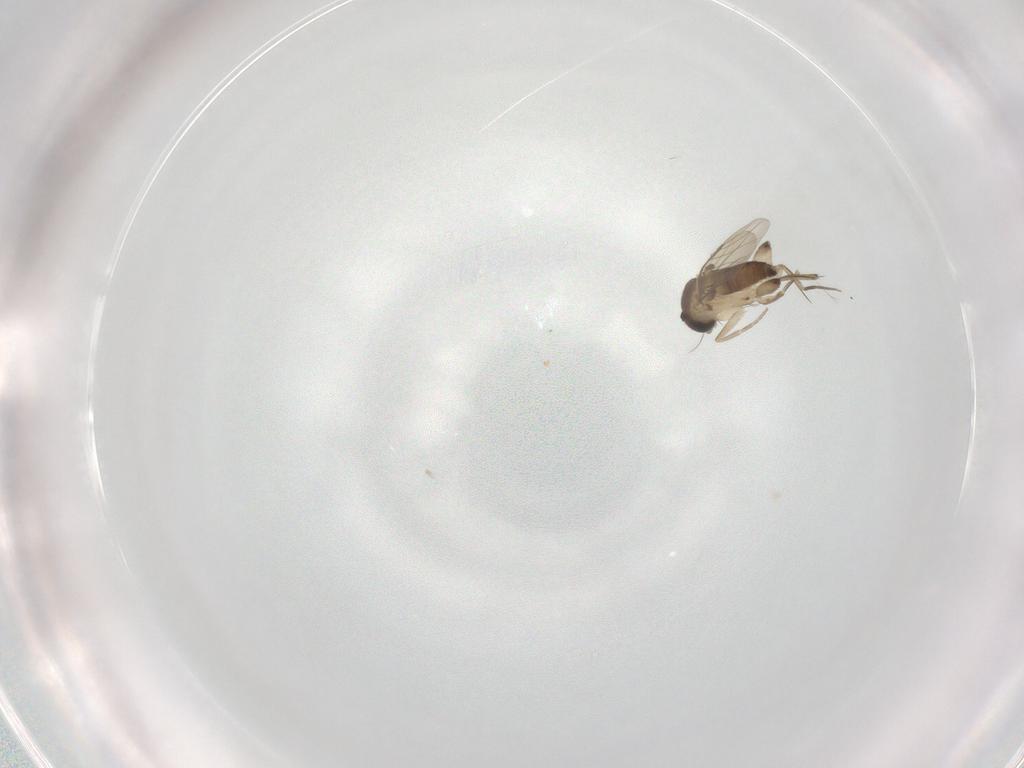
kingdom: Animalia
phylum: Arthropoda
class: Insecta
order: Diptera
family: Phoridae
